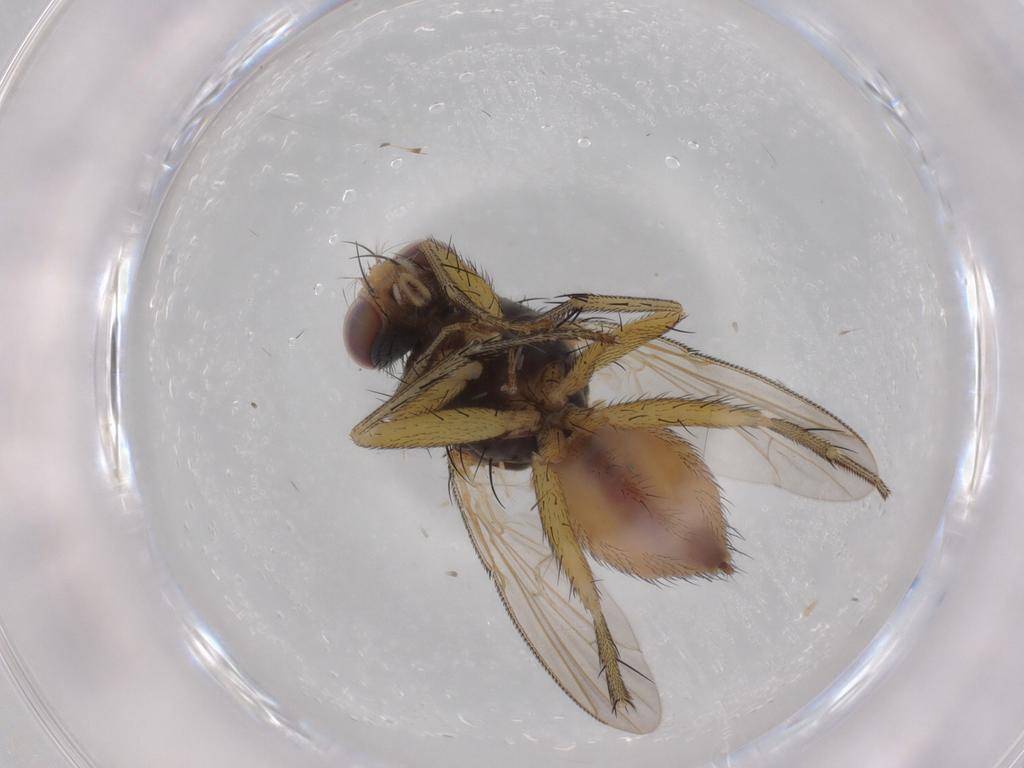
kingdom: Animalia
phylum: Arthropoda
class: Insecta
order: Diptera
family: Muscidae
